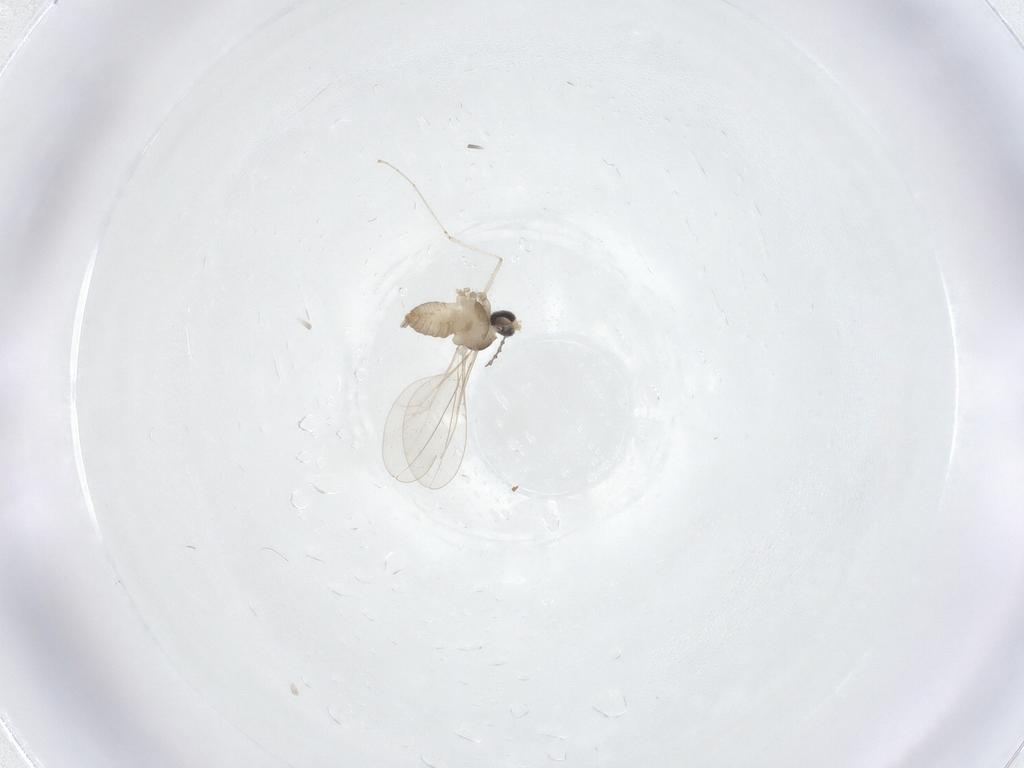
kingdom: Animalia
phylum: Arthropoda
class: Insecta
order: Diptera
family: Chironomidae
